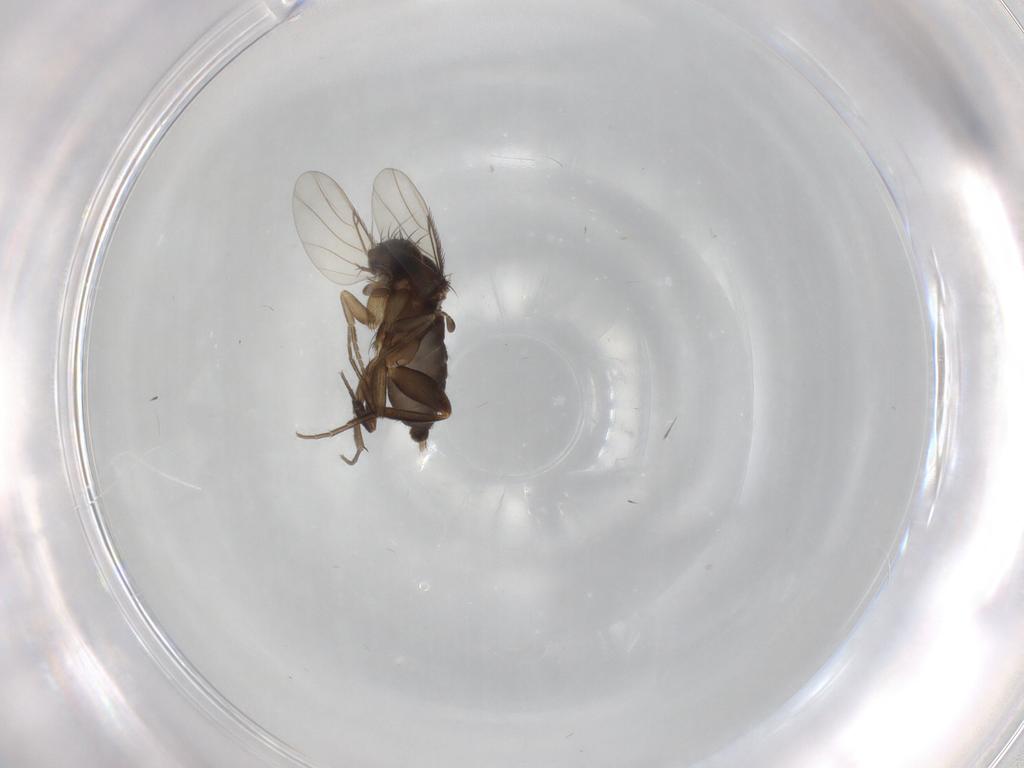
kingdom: Animalia
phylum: Arthropoda
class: Insecta
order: Diptera
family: Phoridae
